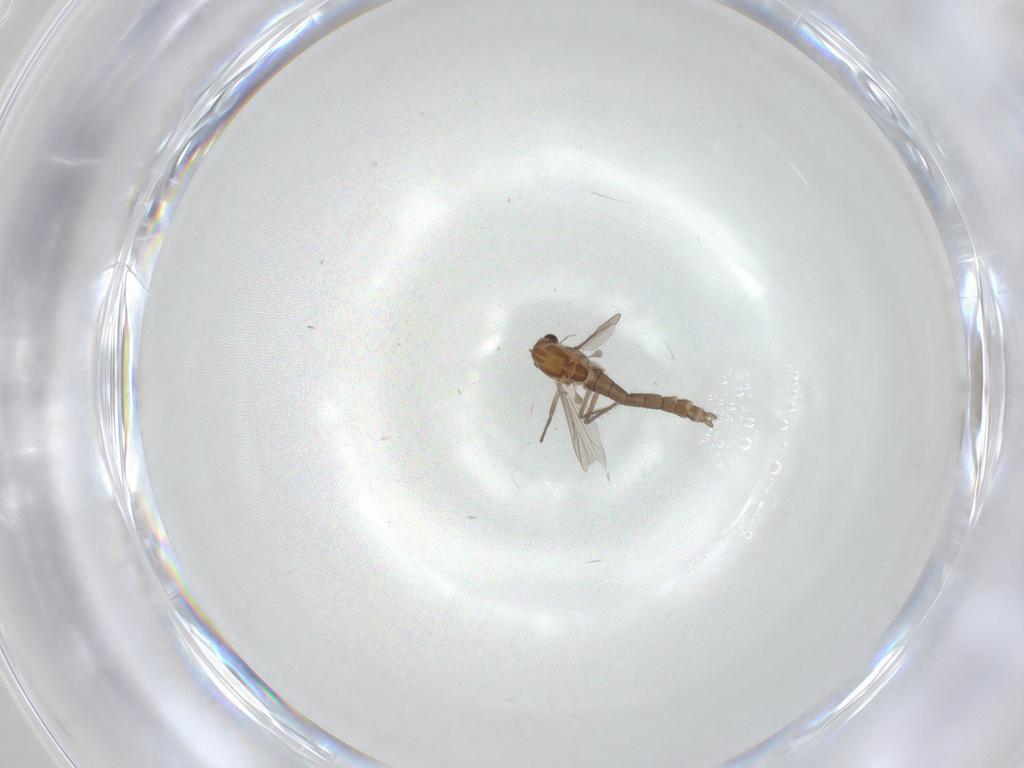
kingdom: Animalia
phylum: Arthropoda
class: Insecta
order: Diptera
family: Chironomidae
